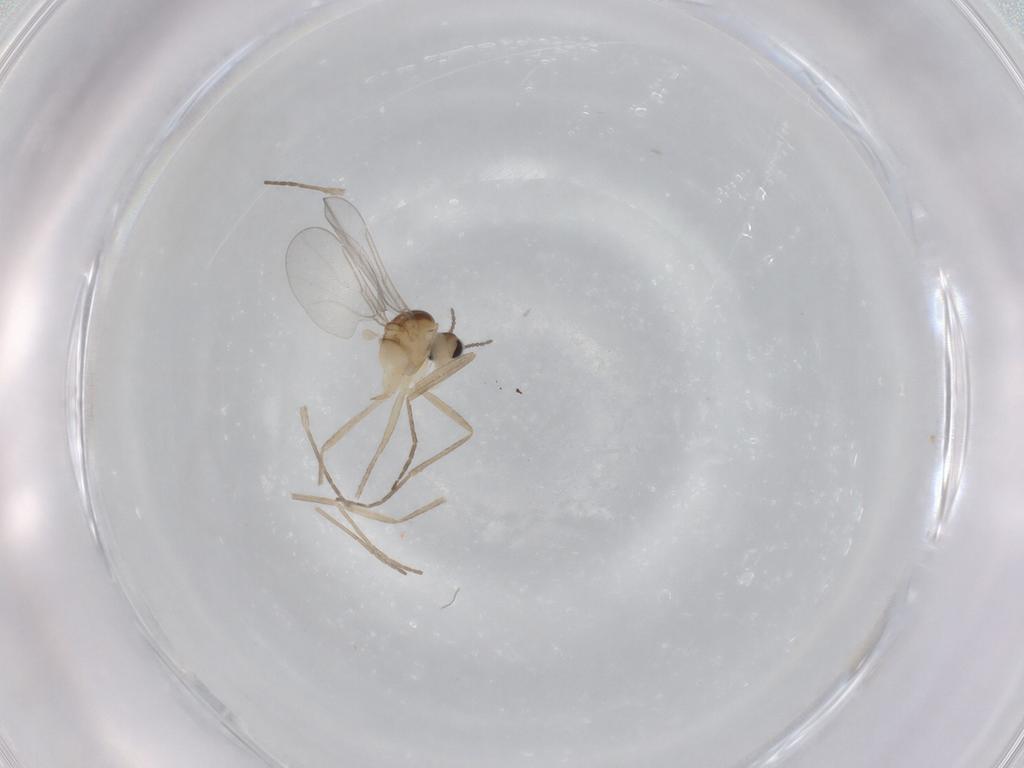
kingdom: Animalia
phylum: Arthropoda
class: Insecta
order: Diptera
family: Cecidomyiidae
